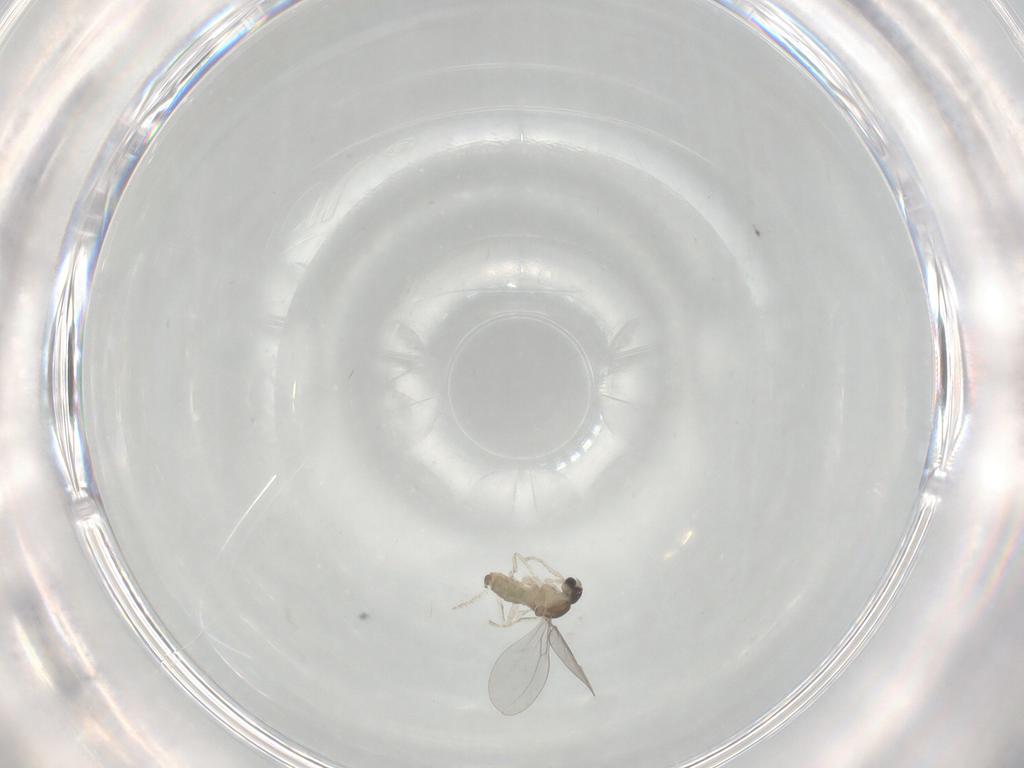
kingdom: Animalia
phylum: Arthropoda
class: Insecta
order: Diptera
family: Cecidomyiidae
